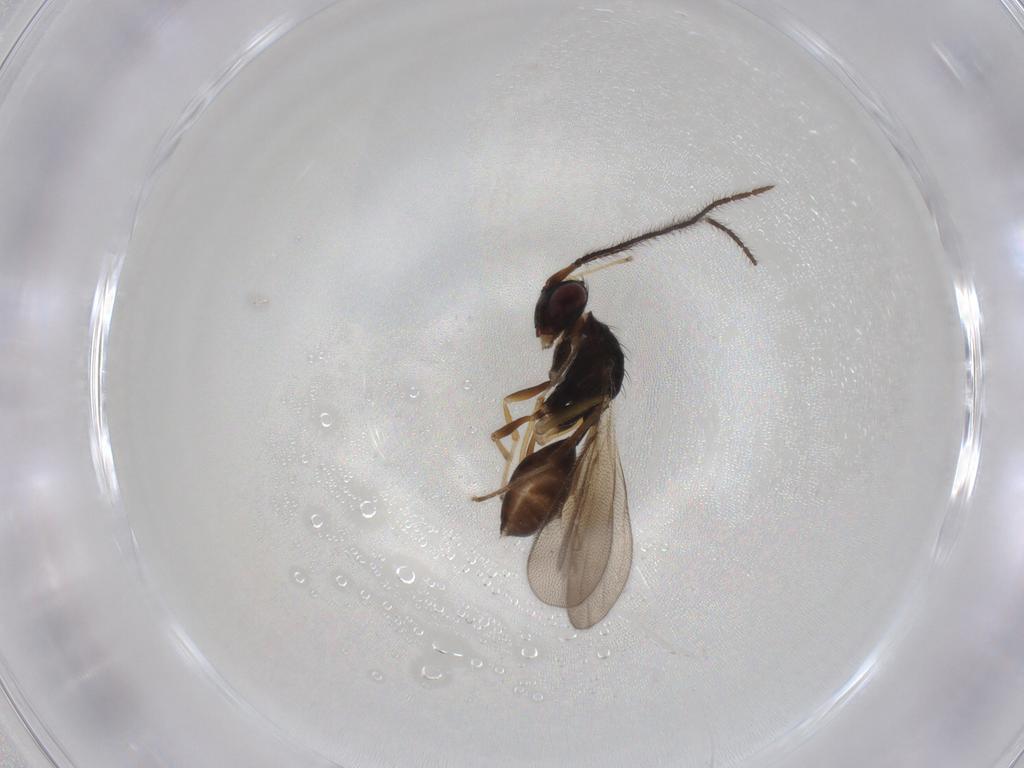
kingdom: Animalia
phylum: Arthropoda
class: Insecta
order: Hymenoptera
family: Diparidae
